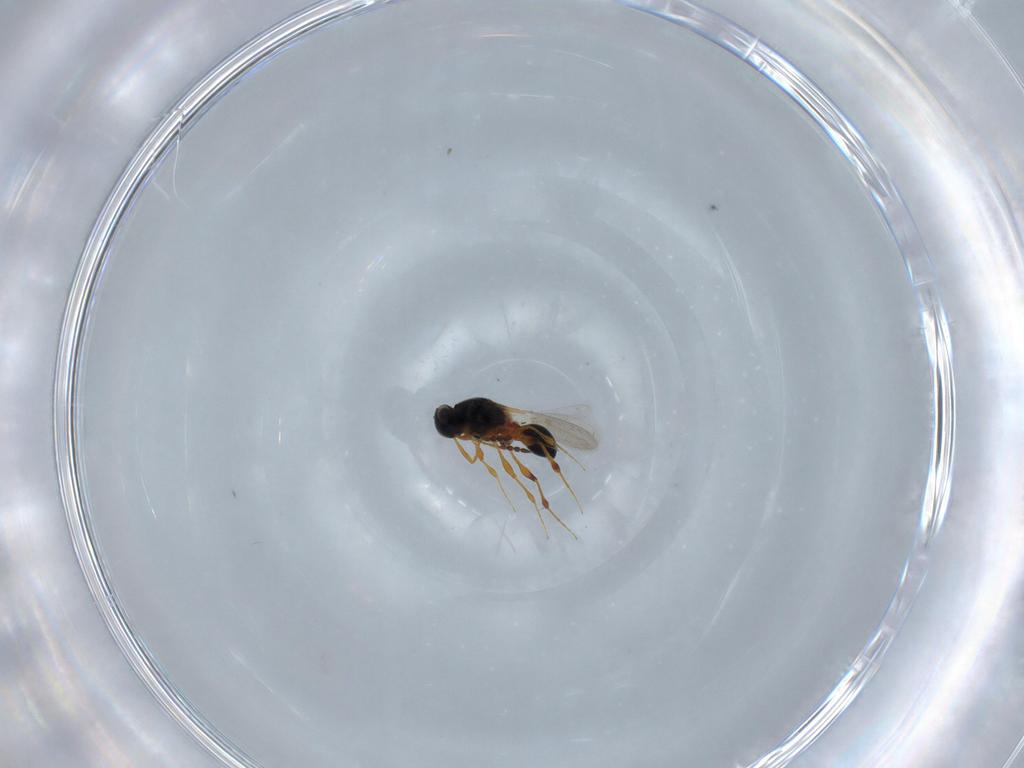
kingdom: Animalia
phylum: Arthropoda
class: Insecta
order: Hymenoptera
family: Platygastridae
